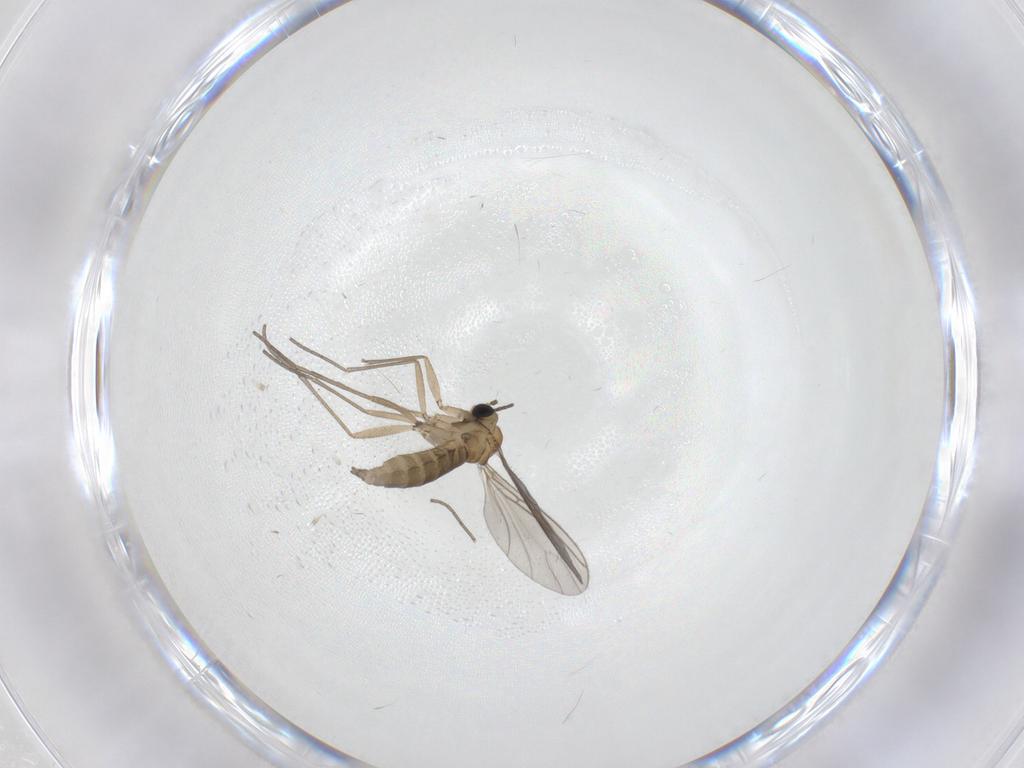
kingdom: Animalia
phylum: Arthropoda
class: Insecta
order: Diptera
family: Sciaridae
